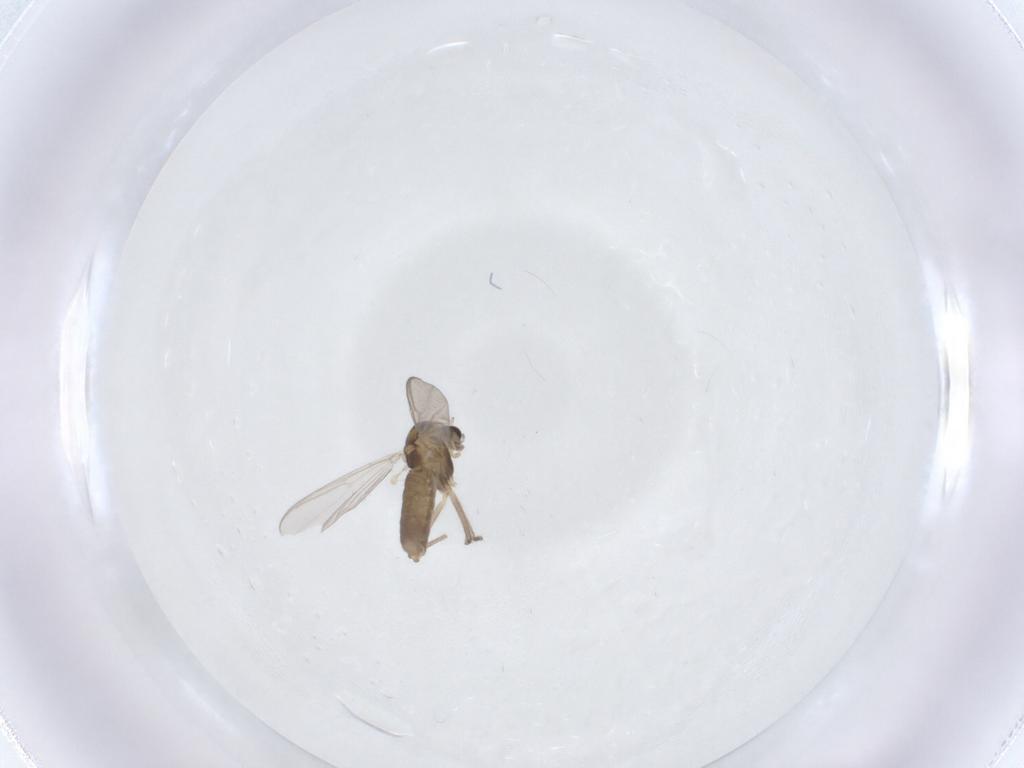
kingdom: Animalia
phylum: Arthropoda
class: Insecta
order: Diptera
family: Chironomidae
